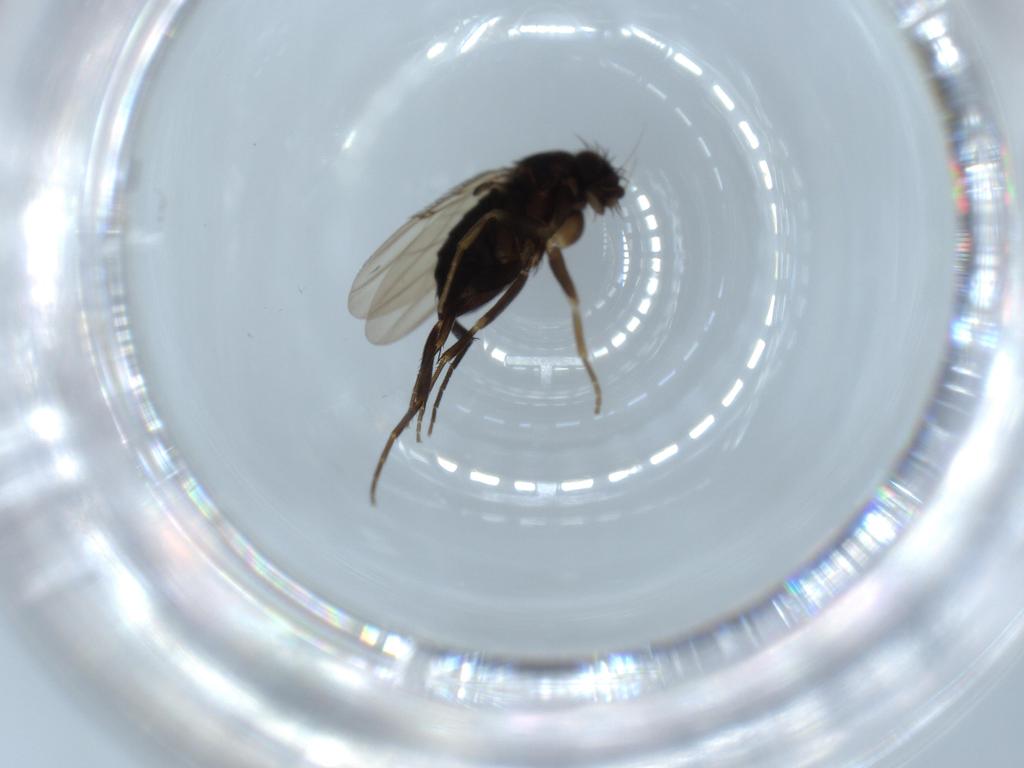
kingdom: Animalia
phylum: Arthropoda
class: Insecta
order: Diptera
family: Phoridae
